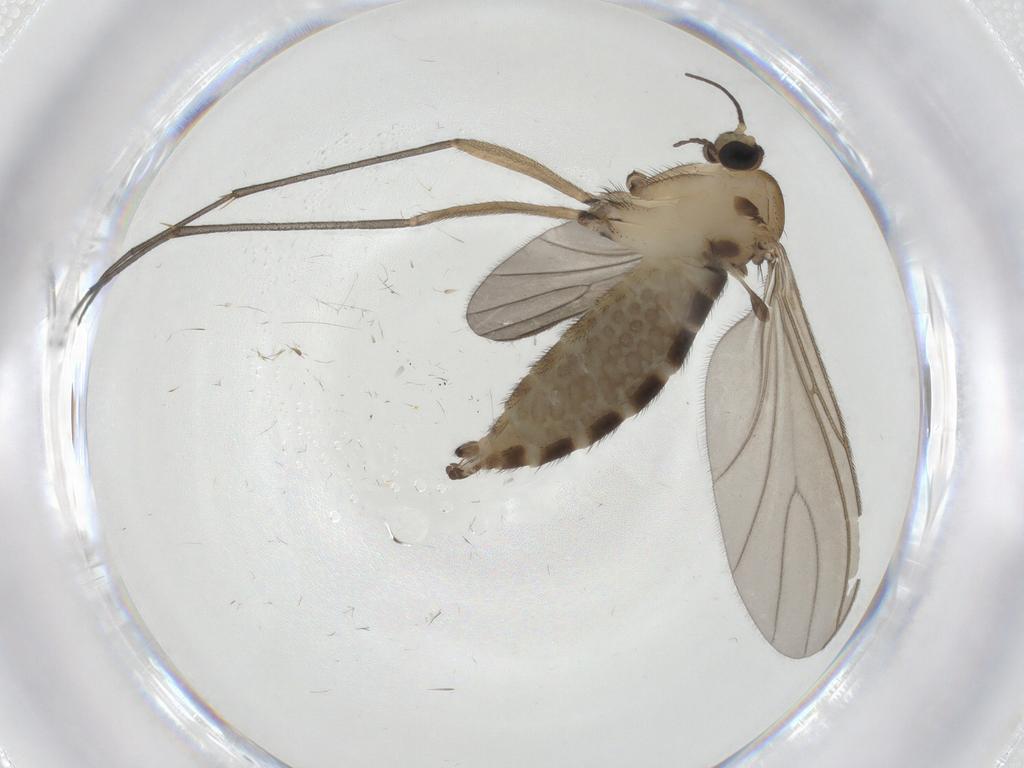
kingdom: Animalia
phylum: Arthropoda
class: Insecta
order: Diptera
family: Sciaridae
